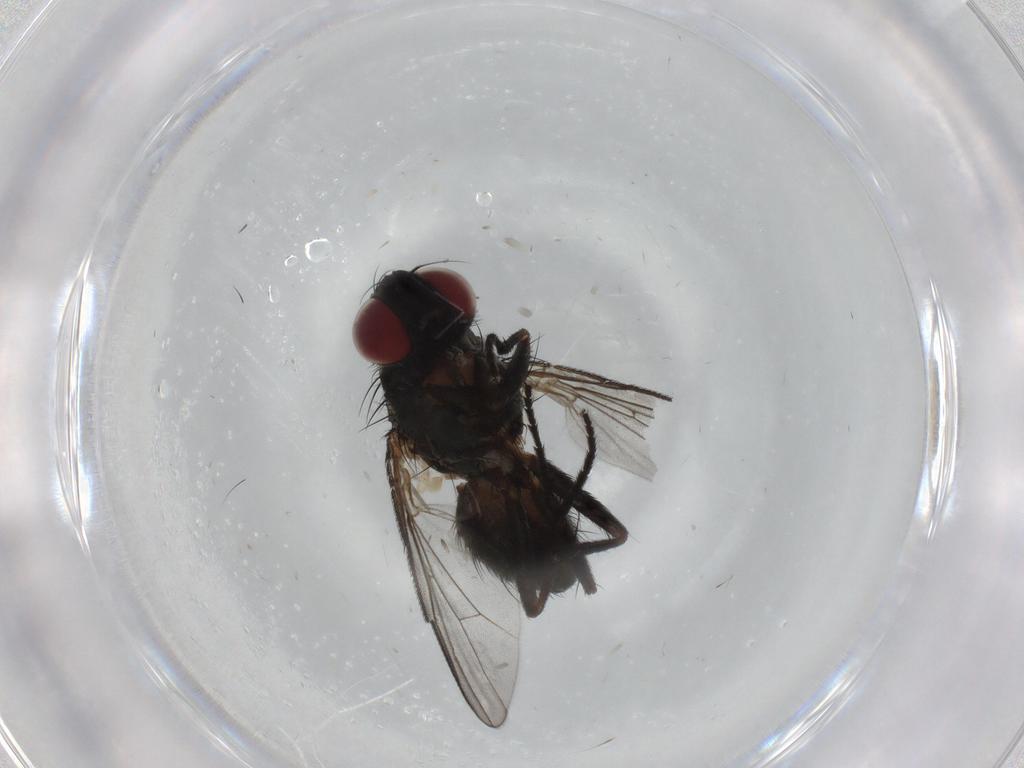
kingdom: Animalia
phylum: Arthropoda
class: Insecta
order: Diptera
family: Muscidae
